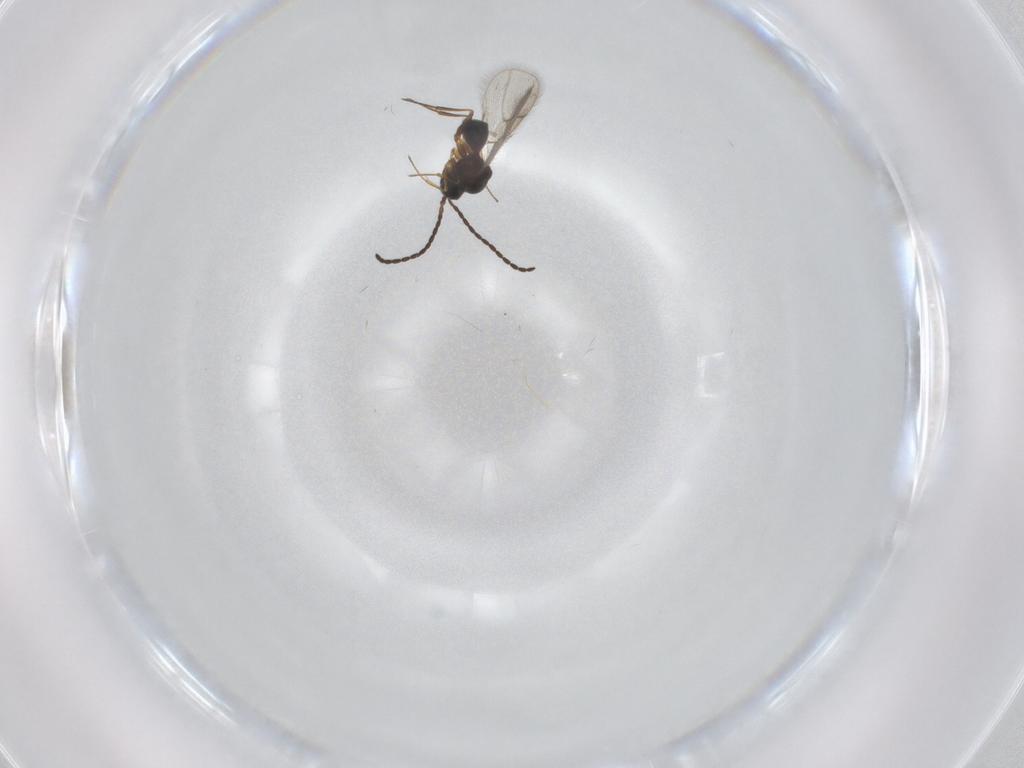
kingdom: Animalia
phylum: Arthropoda
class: Insecta
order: Hymenoptera
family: Figitidae
